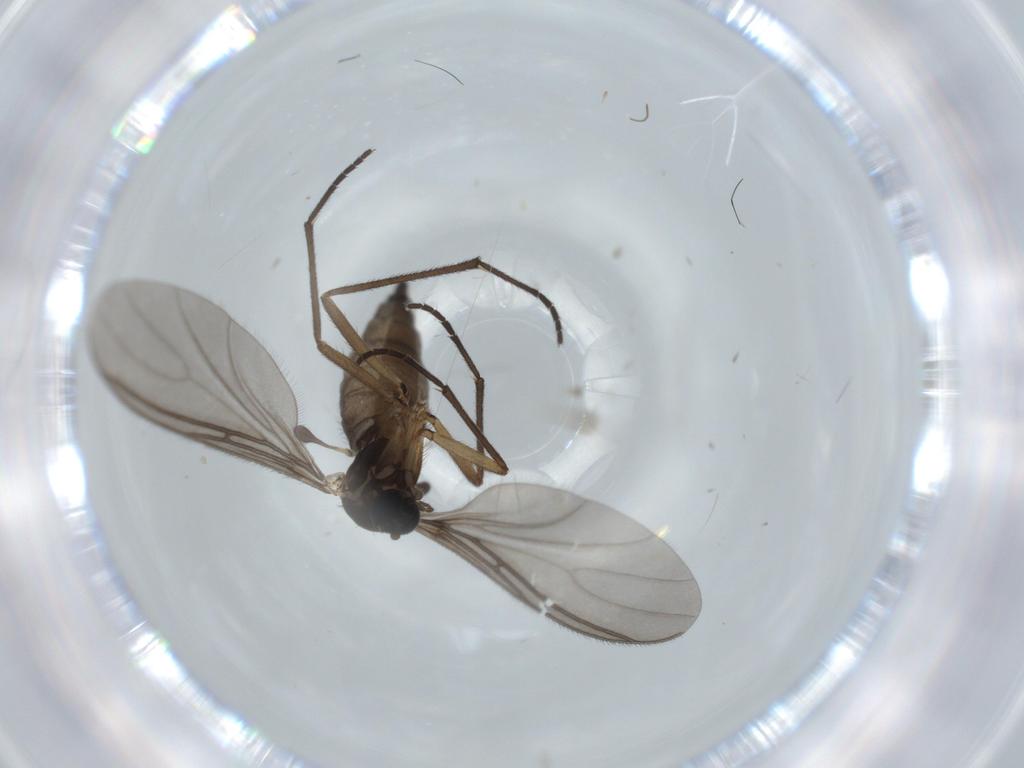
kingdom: Animalia
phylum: Arthropoda
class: Insecta
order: Diptera
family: Sciaridae
